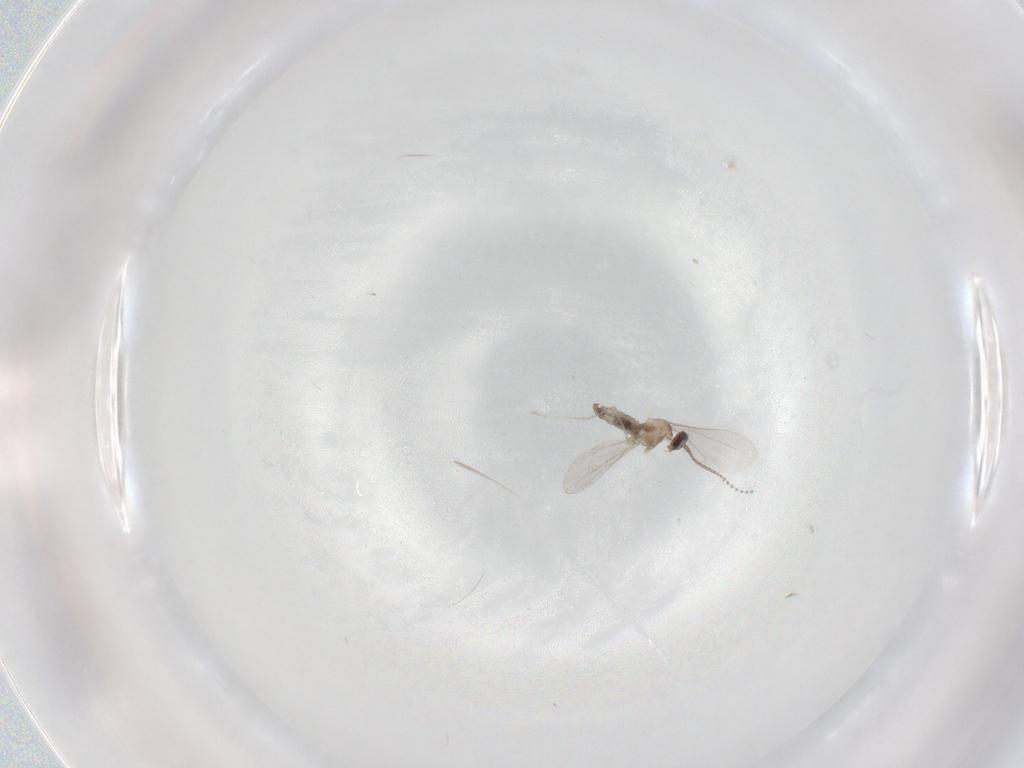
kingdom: Animalia
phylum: Arthropoda
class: Insecta
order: Diptera
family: Cecidomyiidae
